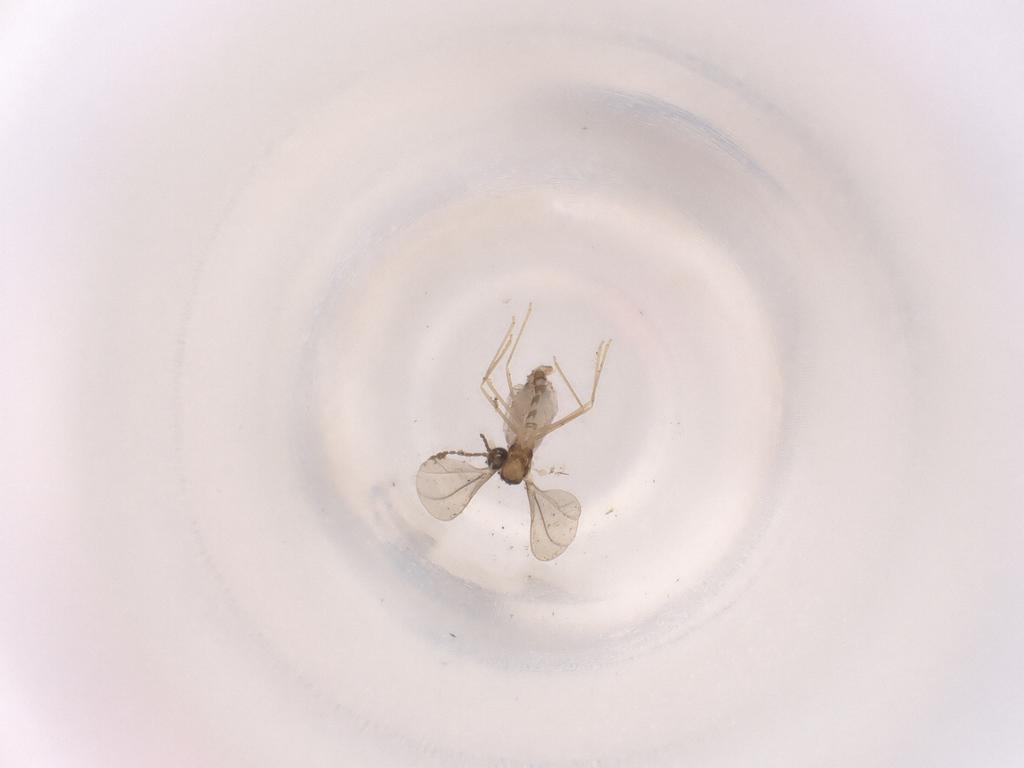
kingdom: Animalia
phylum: Arthropoda
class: Insecta
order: Diptera
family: Cecidomyiidae
